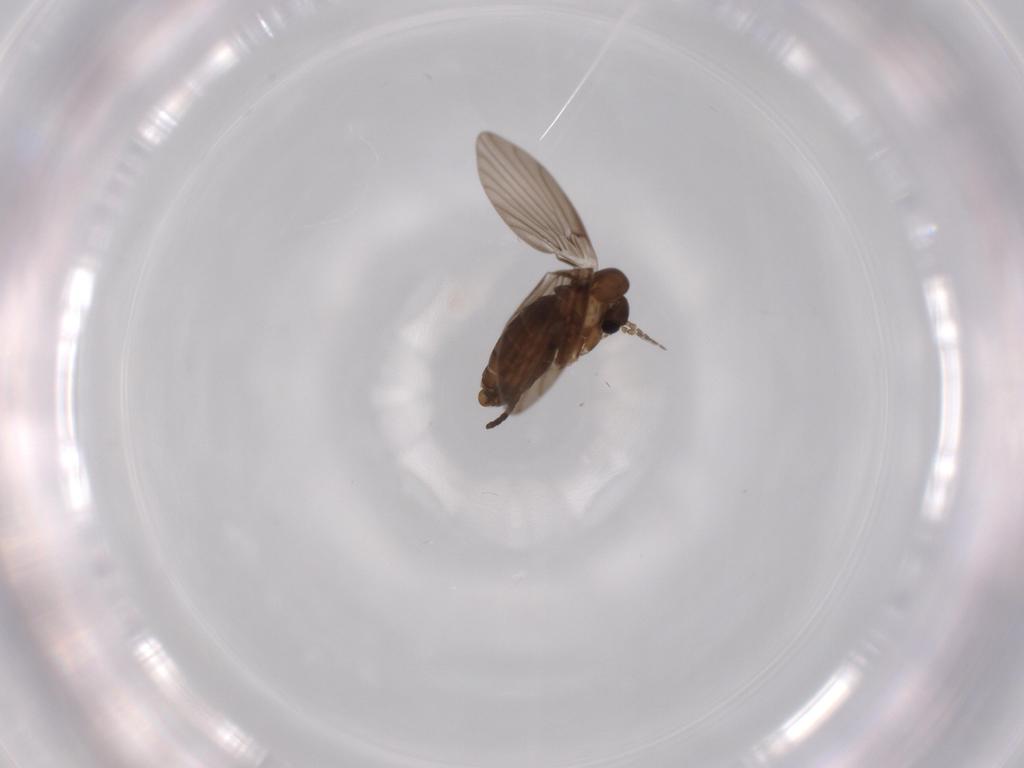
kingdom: Animalia
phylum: Arthropoda
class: Insecta
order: Diptera
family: Psychodidae
